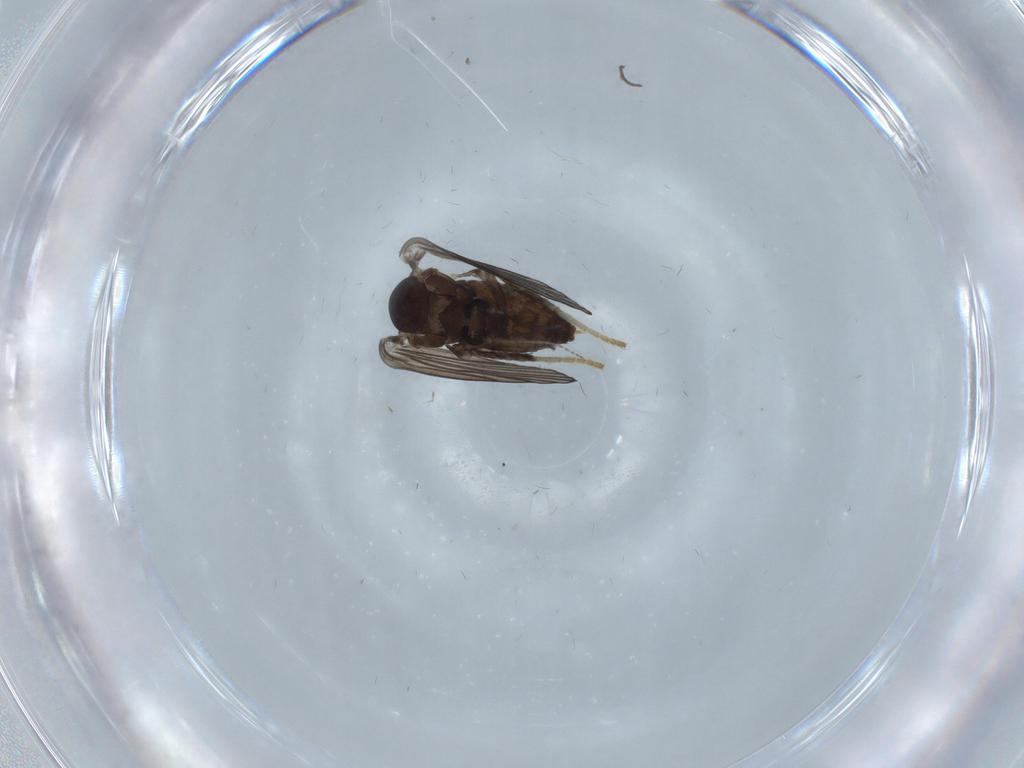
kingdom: Animalia
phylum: Arthropoda
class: Insecta
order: Diptera
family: Psychodidae
